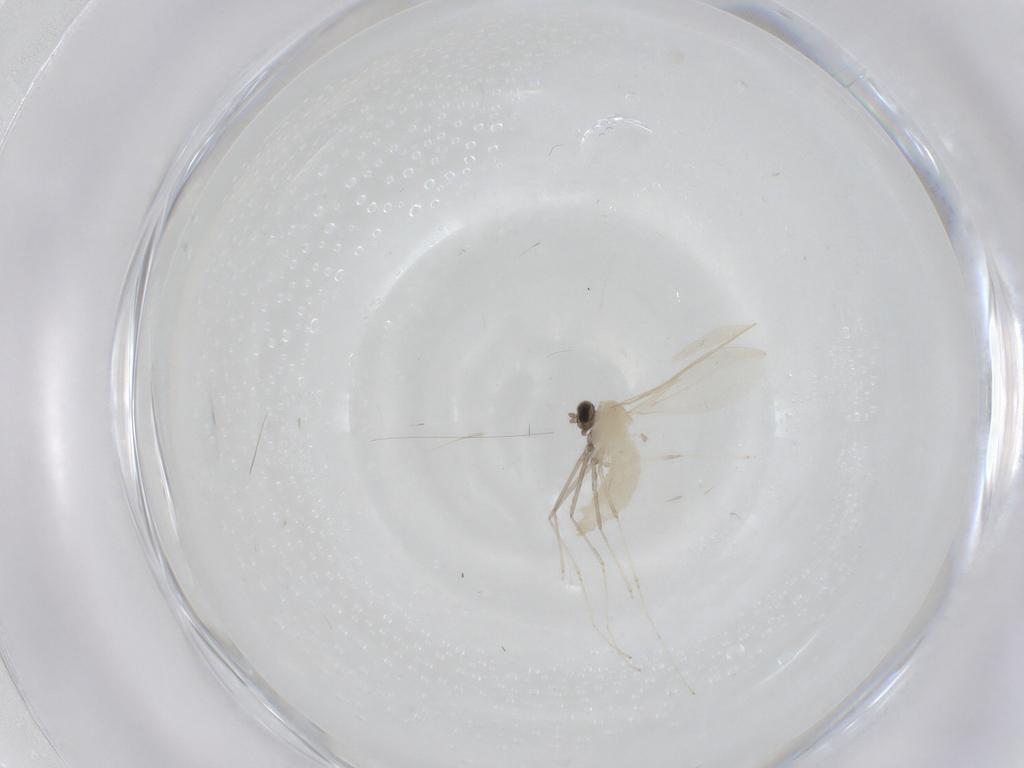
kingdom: Animalia
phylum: Arthropoda
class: Insecta
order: Diptera
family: Cecidomyiidae
